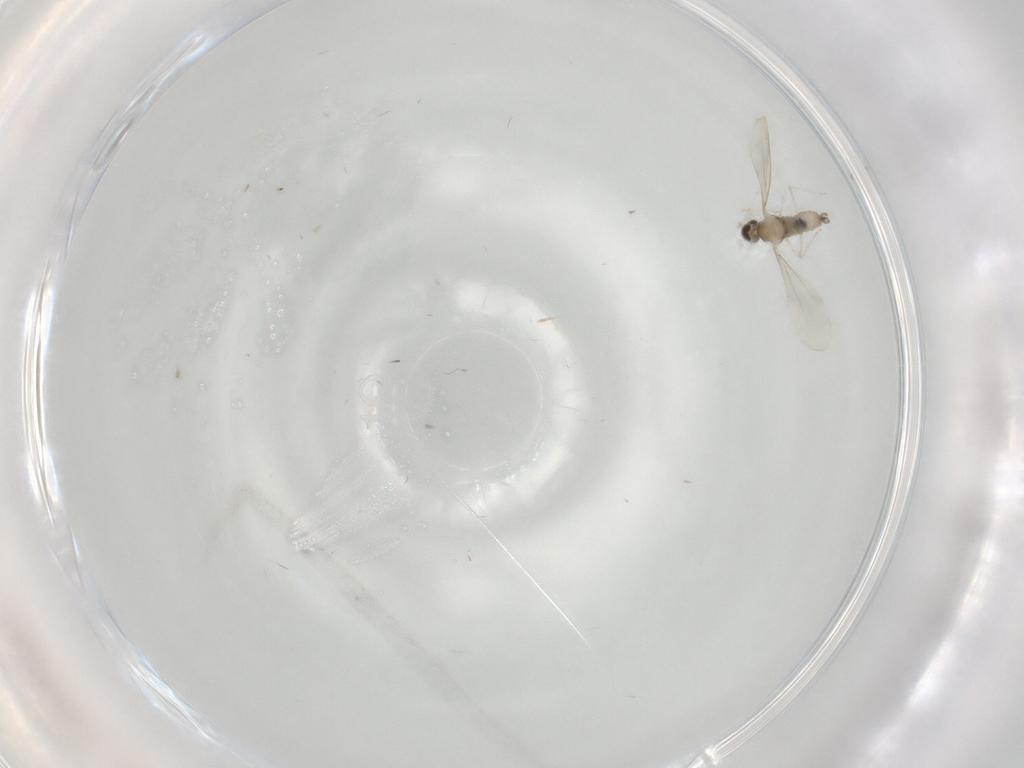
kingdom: Animalia
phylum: Arthropoda
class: Insecta
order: Diptera
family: Cecidomyiidae
